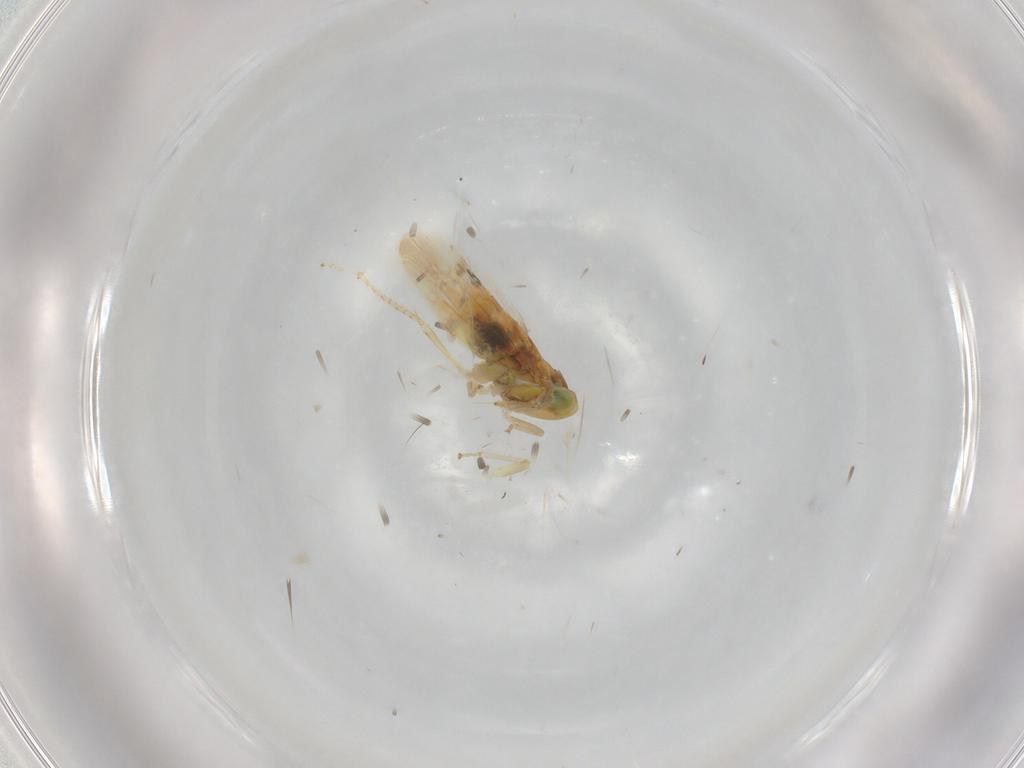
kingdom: Animalia
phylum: Arthropoda
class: Insecta
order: Hemiptera
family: Cicadellidae
